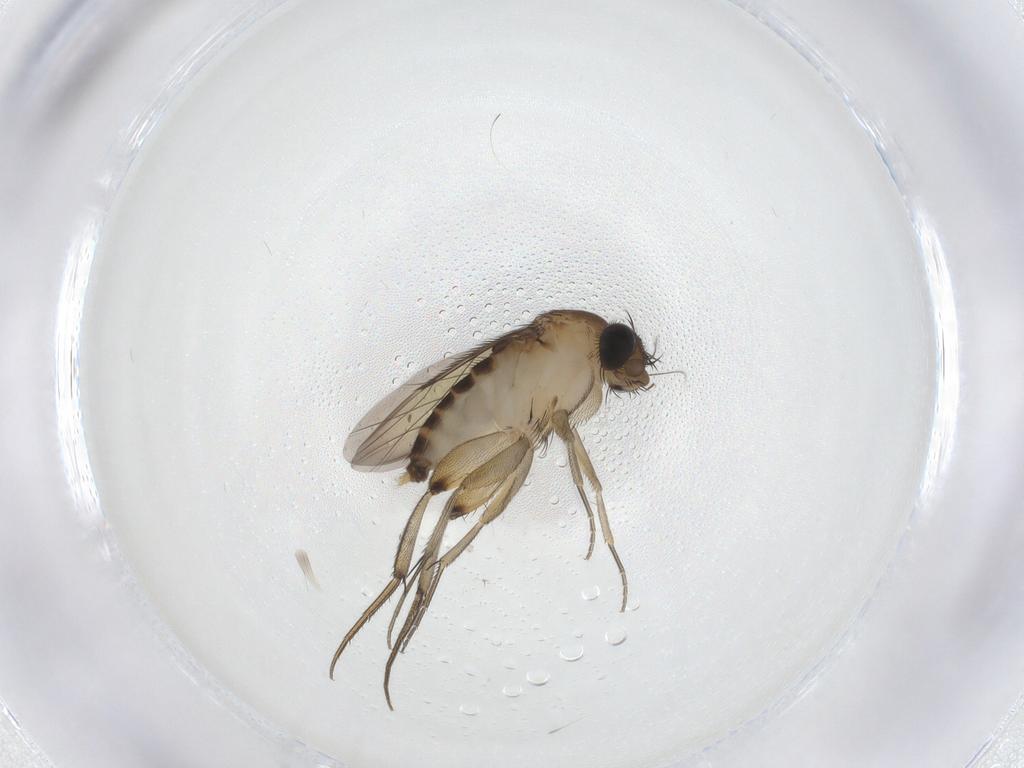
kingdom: Animalia
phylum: Arthropoda
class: Insecta
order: Diptera
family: Phoridae
